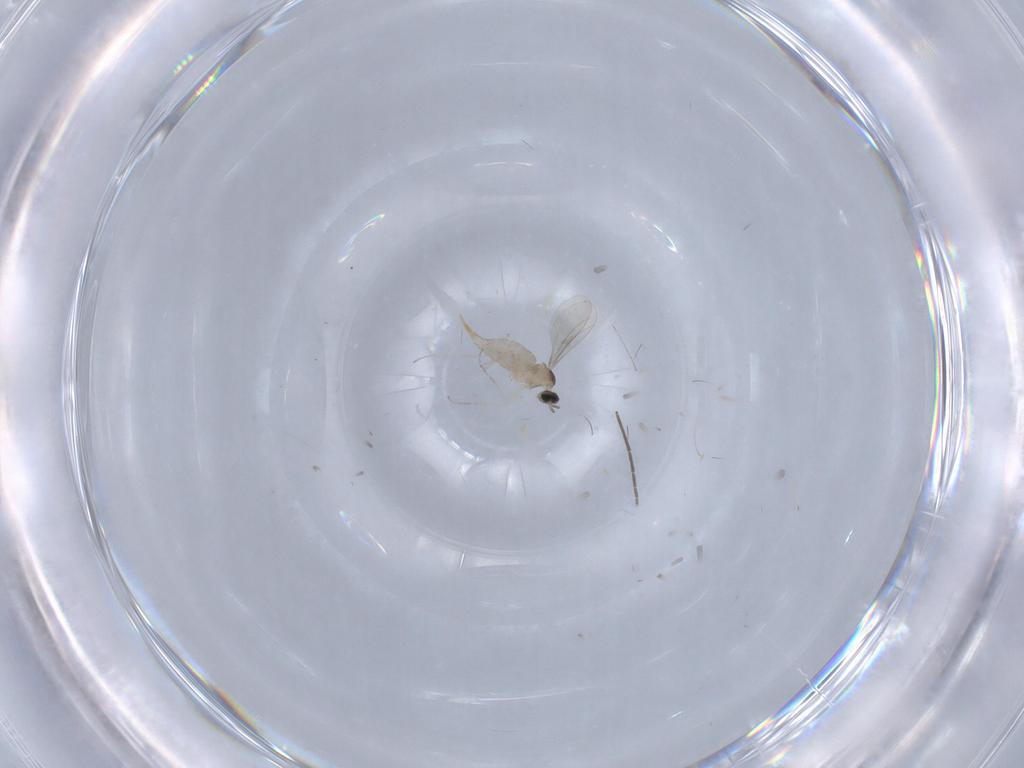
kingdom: Animalia
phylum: Arthropoda
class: Insecta
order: Diptera
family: Cecidomyiidae
